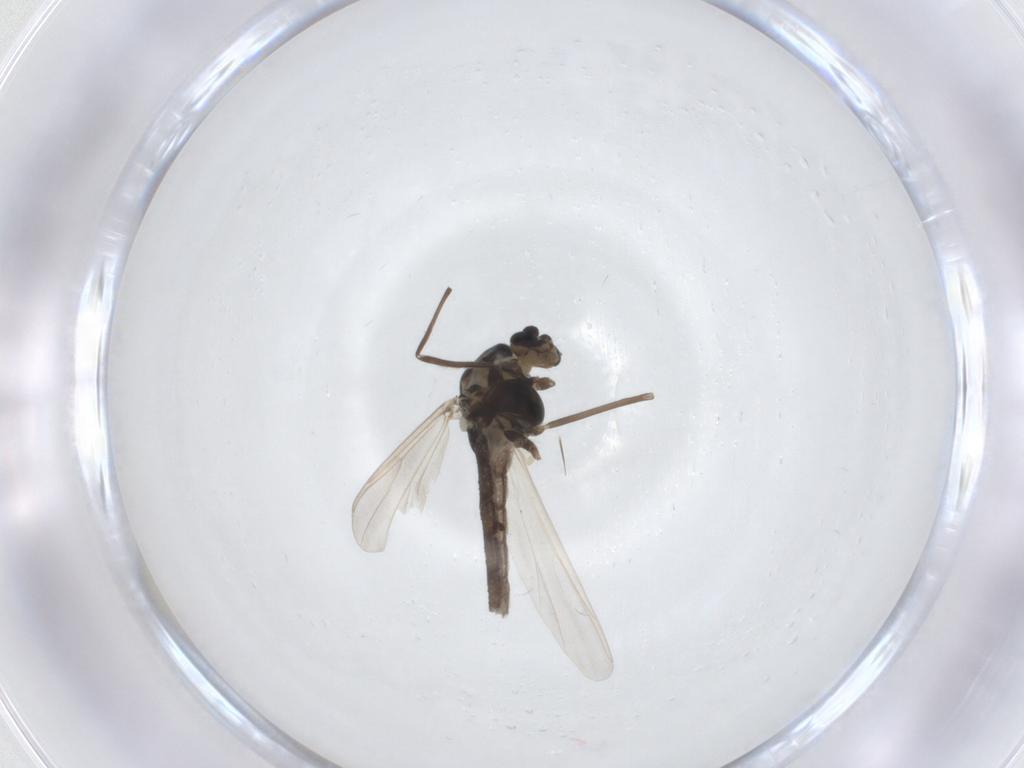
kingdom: Animalia
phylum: Arthropoda
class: Insecta
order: Diptera
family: Chironomidae
